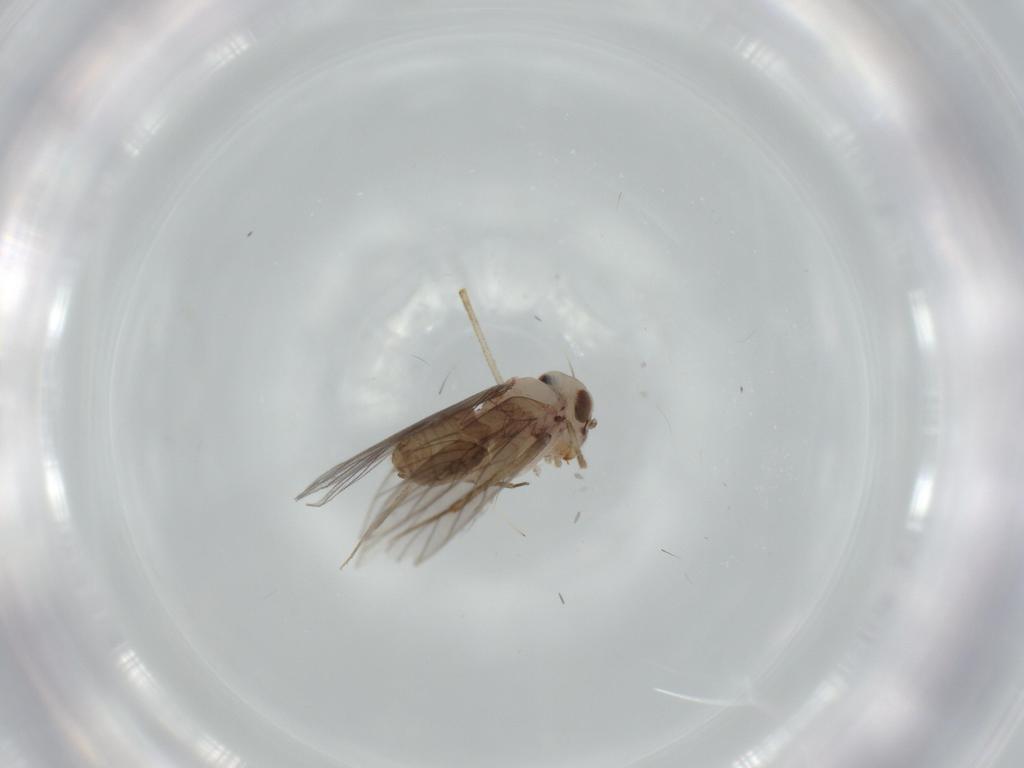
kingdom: Animalia
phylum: Arthropoda
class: Insecta
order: Psocodea
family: Lepidopsocidae
